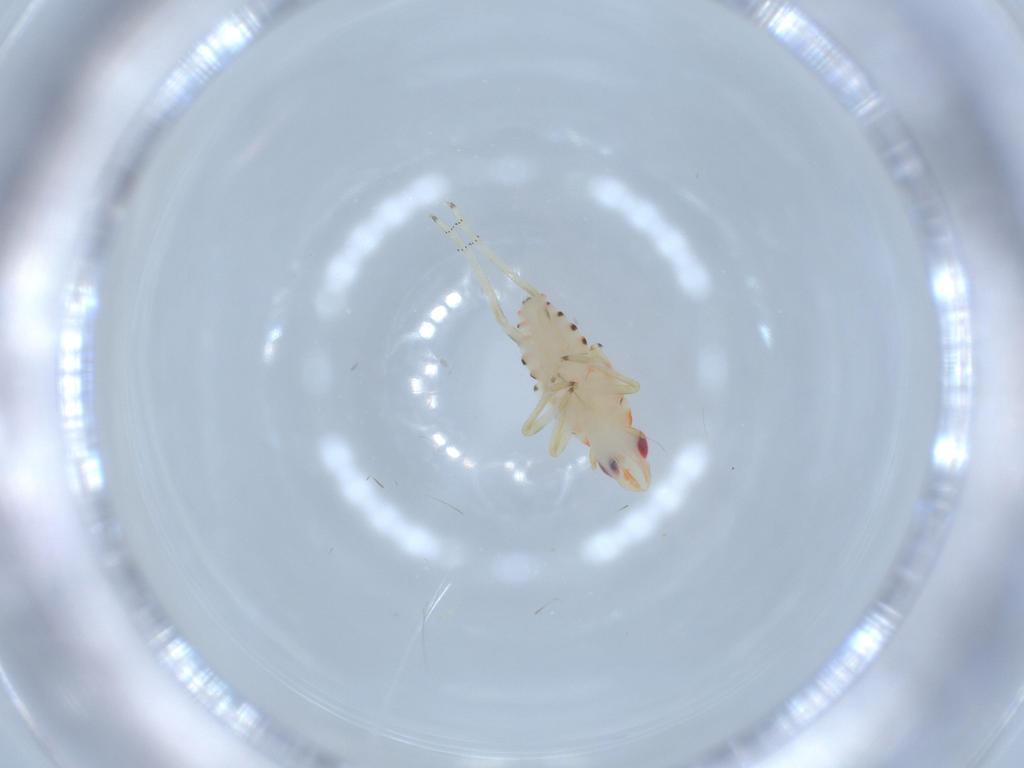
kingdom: Animalia
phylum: Arthropoda
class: Insecta
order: Hemiptera
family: Tropiduchidae
